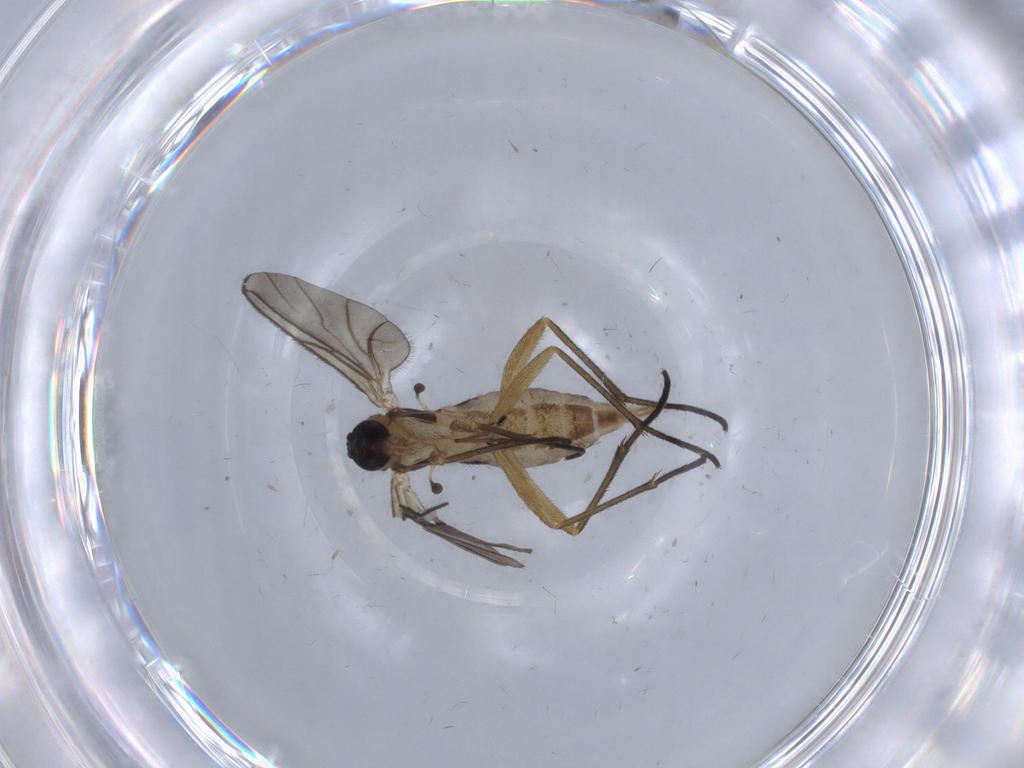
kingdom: Animalia
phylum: Arthropoda
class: Insecta
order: Diptera
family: Sciaridae
